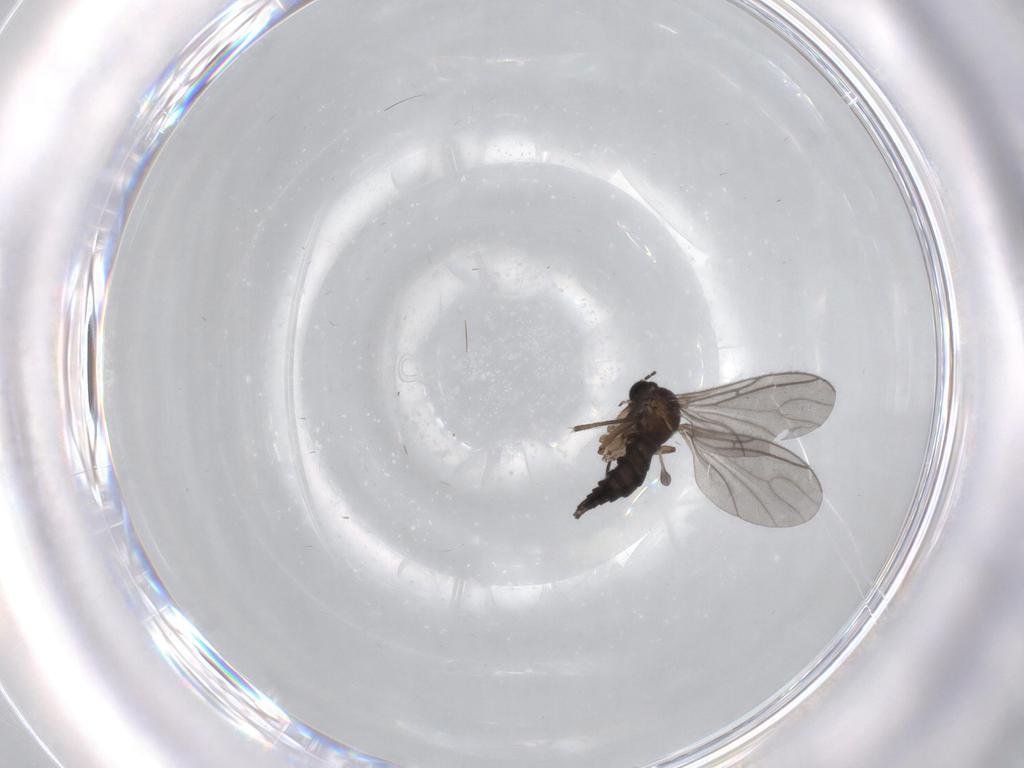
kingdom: Animalia
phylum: Arthropoda
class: Insecta
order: Diptera
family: Sciaridae
